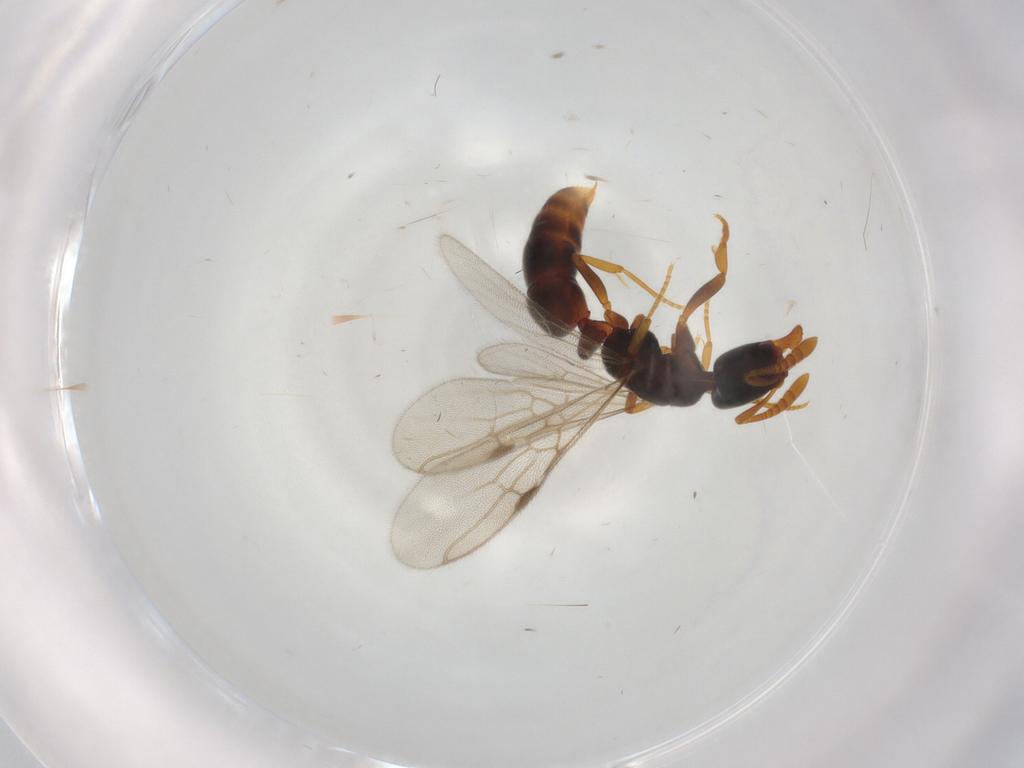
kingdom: Animalia
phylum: Arthropoda
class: Insecta
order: Hymenoptera
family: Formicidae
